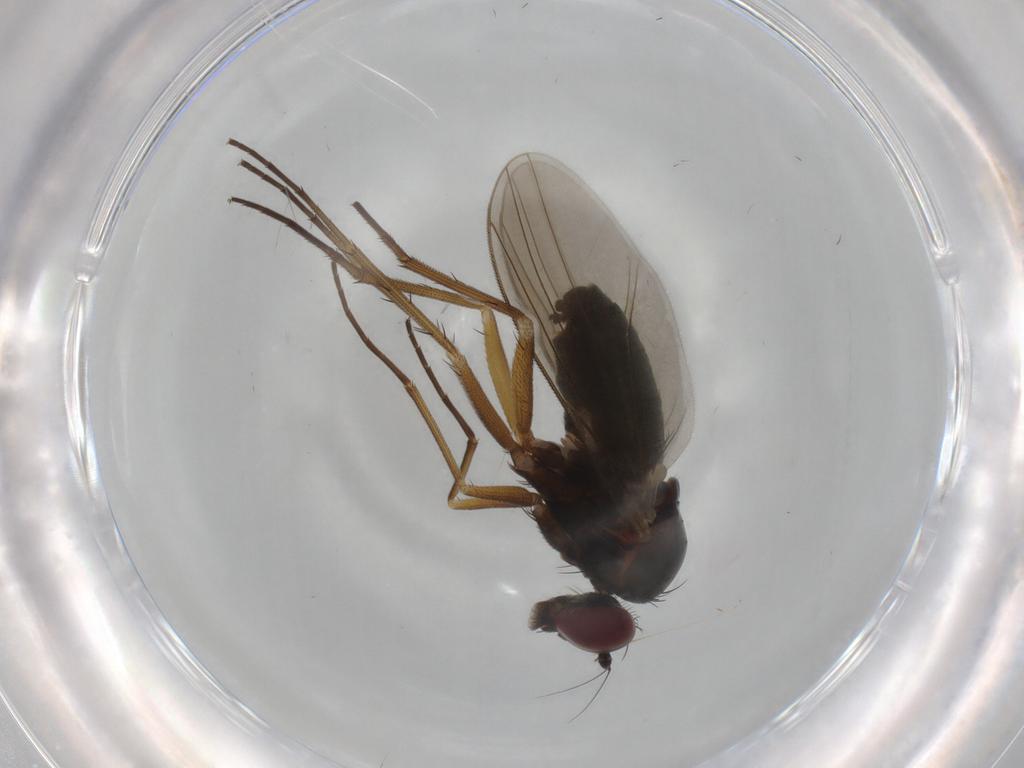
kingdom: Animalia
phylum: Arthropoda
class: Insecta
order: Diptera
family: Dolichopodidae
